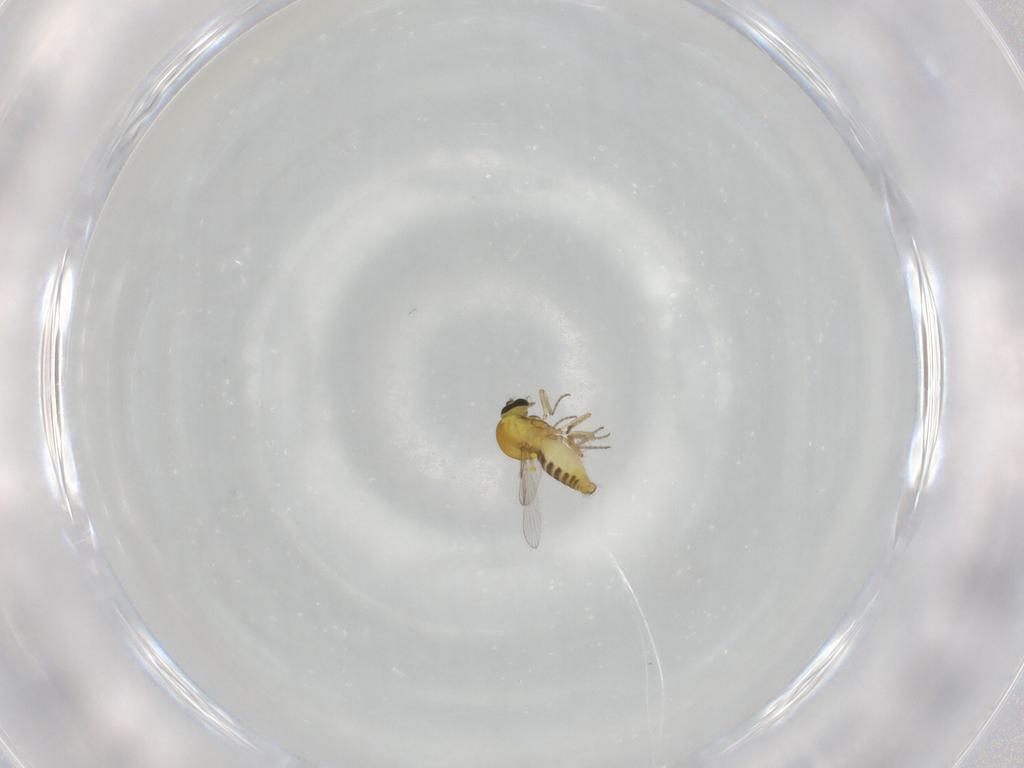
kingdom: Animalia
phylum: Arthropoda
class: Insecta
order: Diptera
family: Ceratopogonidae
